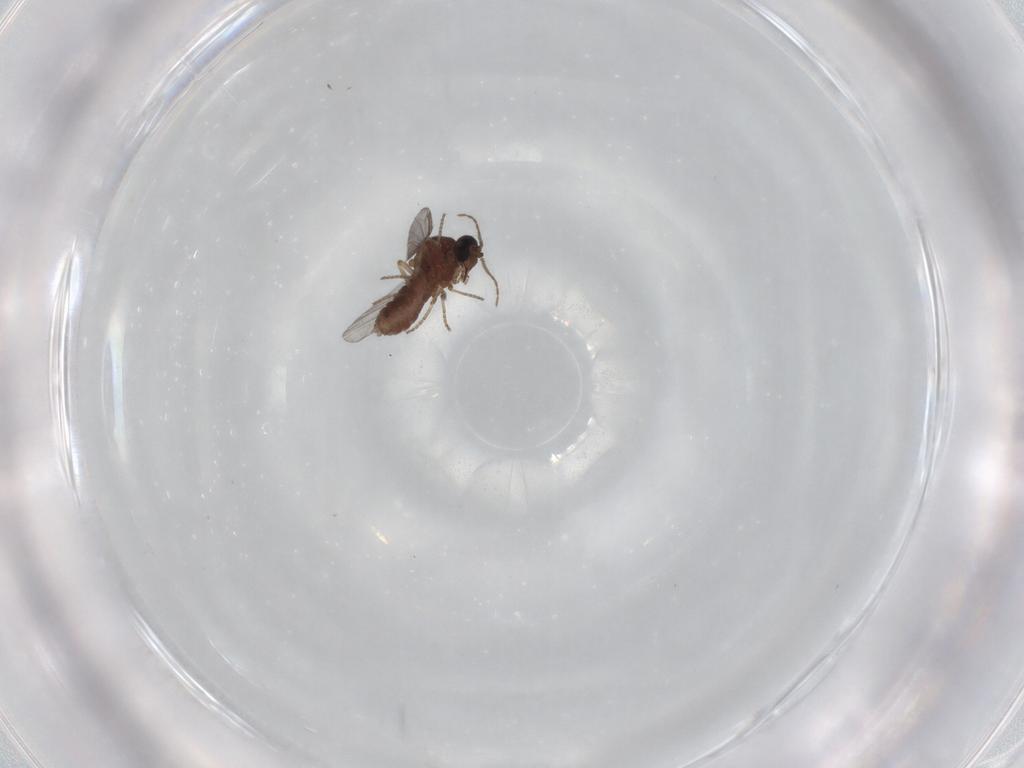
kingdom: Animalia
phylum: Arthropoda
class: Insecta
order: Diptera
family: Ceratopogonidae
